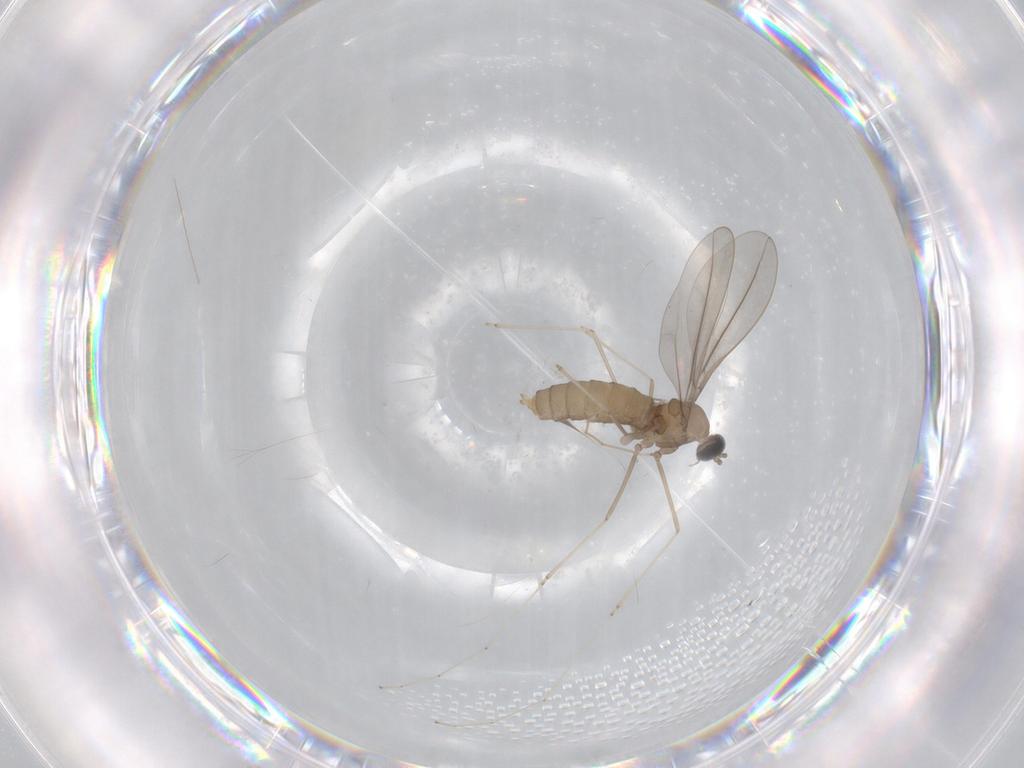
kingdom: Animalia
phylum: Arthropoda
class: Insecta
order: Diptera
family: Cecidomyiidae
